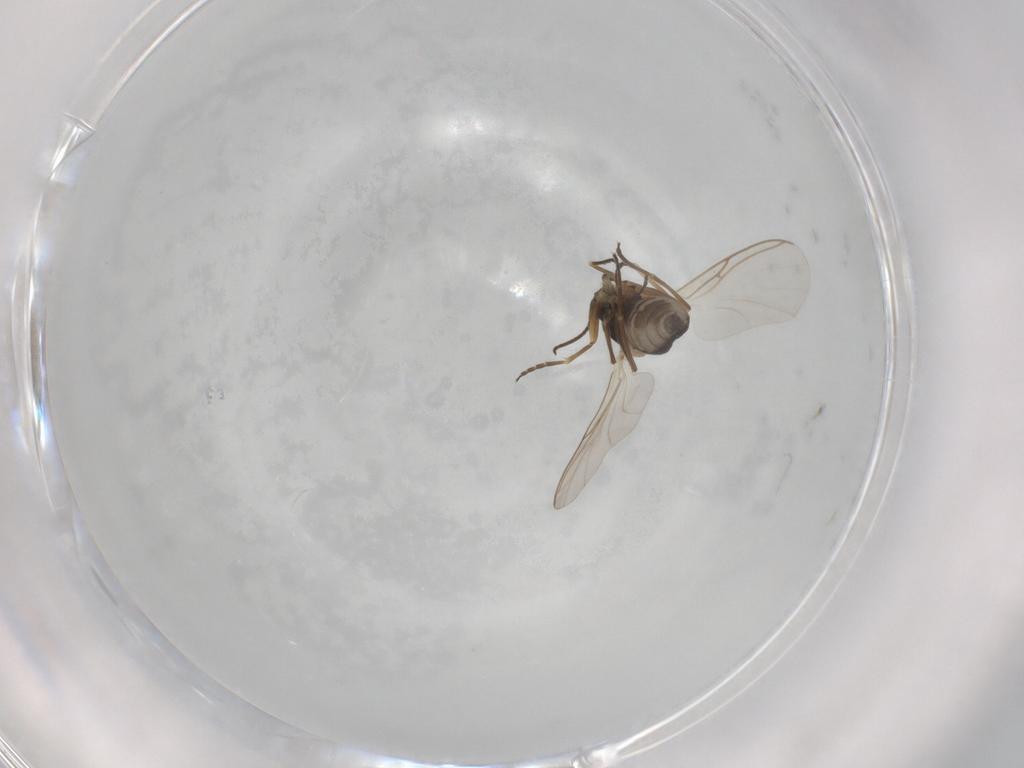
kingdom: Animalia
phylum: Arthropoda
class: Insecta
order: Diptera
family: Sciaridae
